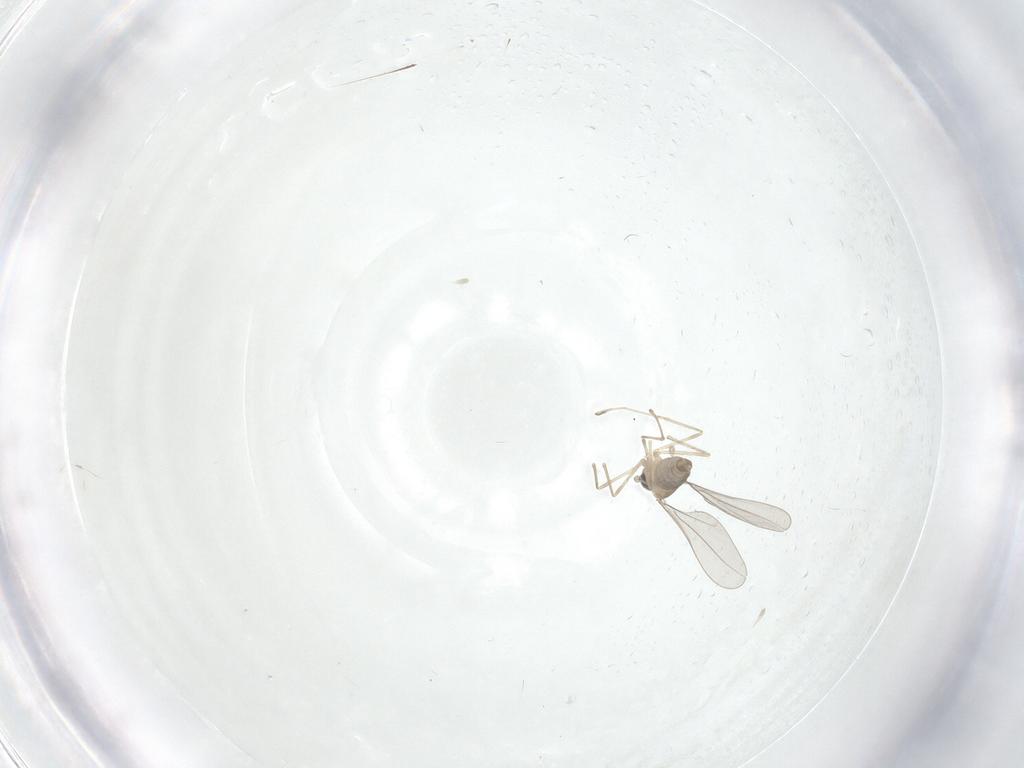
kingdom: Animalia
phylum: Arthropoda
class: Insecta
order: Diptera
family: Cecidomyiidae
